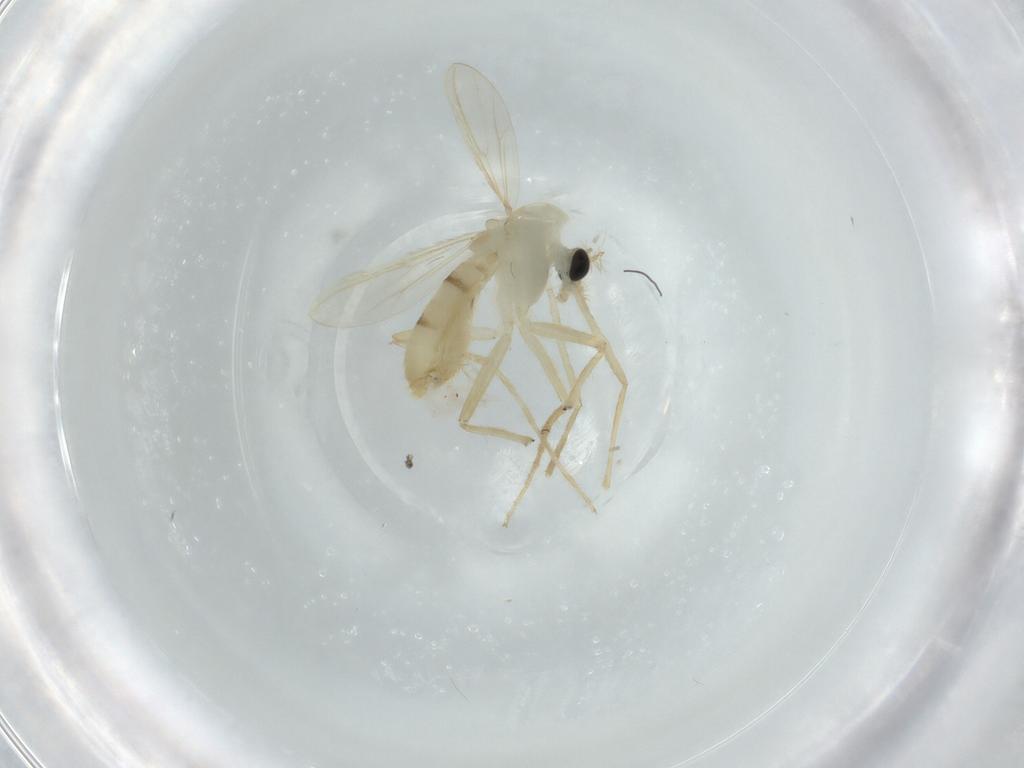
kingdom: Animalia
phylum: Arthropoda
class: Insecta
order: Diptera
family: Chironomidae
